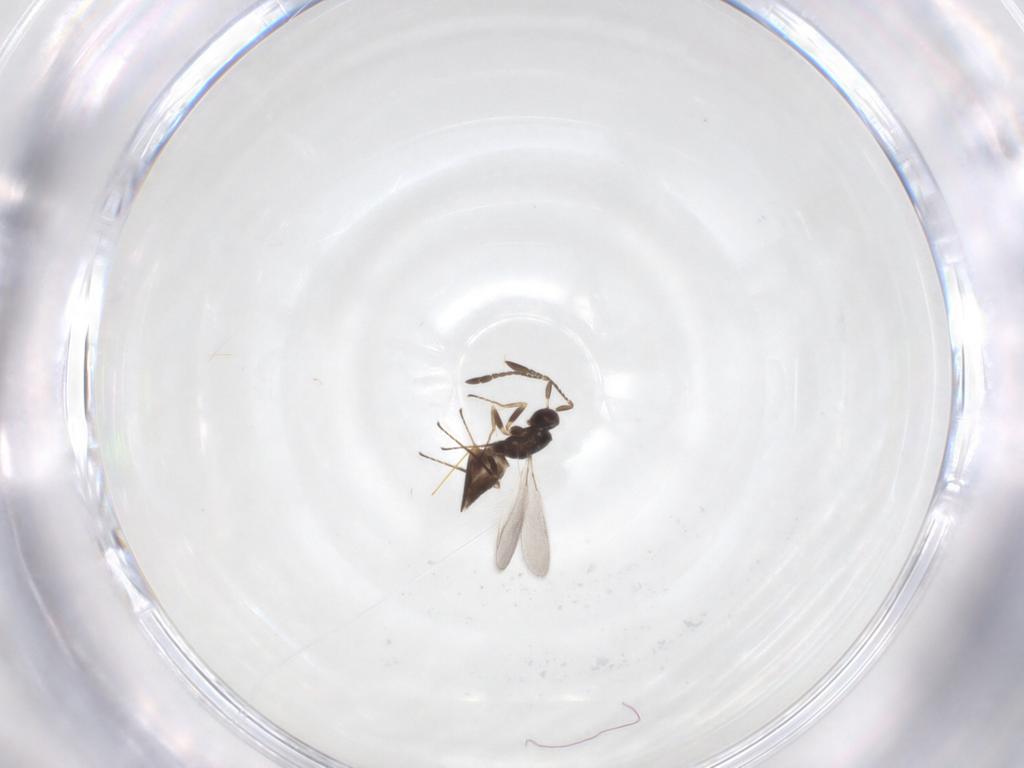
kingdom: Animalia
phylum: Arthropoda
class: Insecta
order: Hymenoptera
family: Mymaridae
